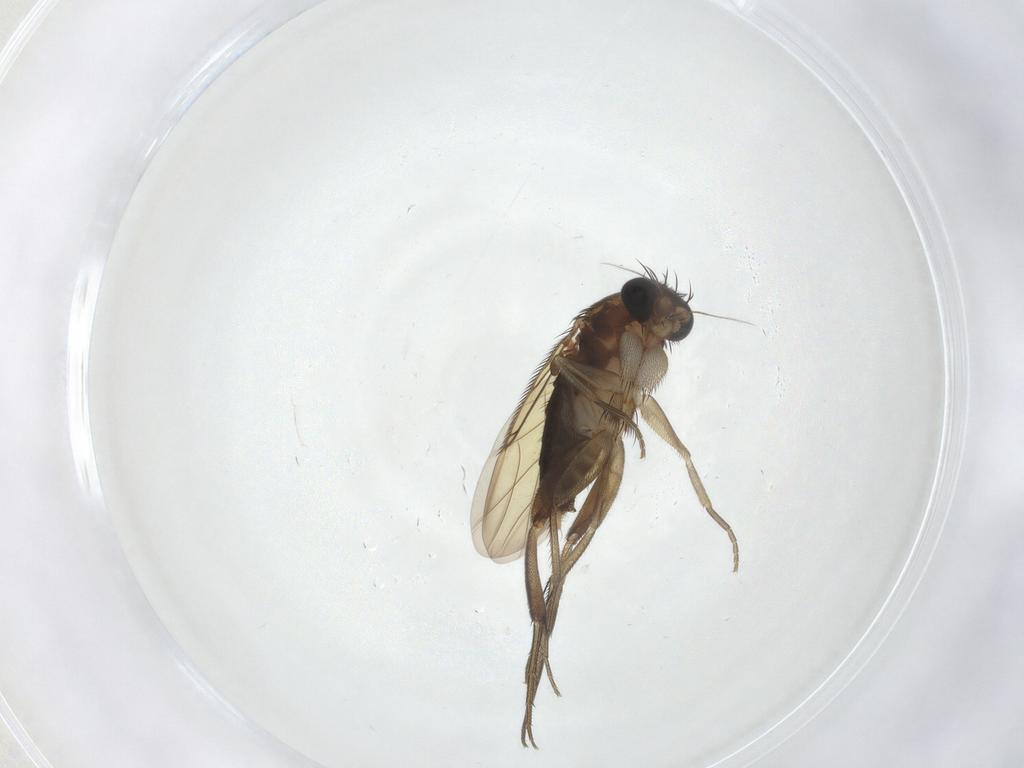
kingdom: Animalia
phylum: Arthropoda
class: Insecta
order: Diptera
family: Phoridae
